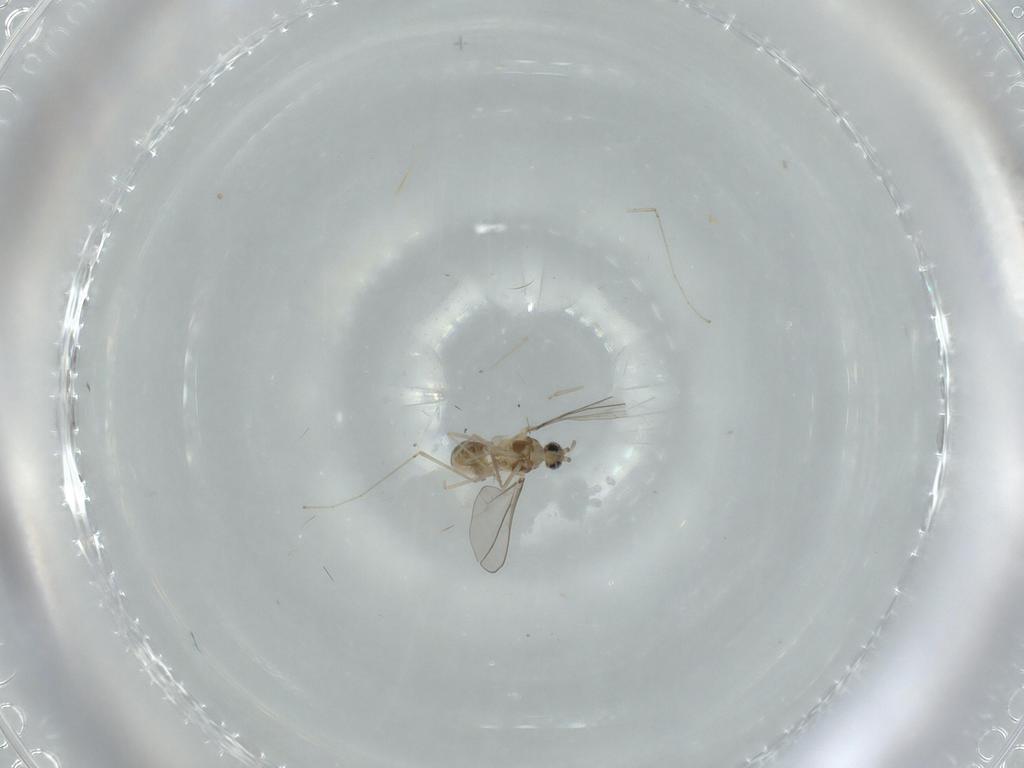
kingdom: Animalia
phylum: Arthropoda
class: Insecta
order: Diptera
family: Cecidomyiidae
